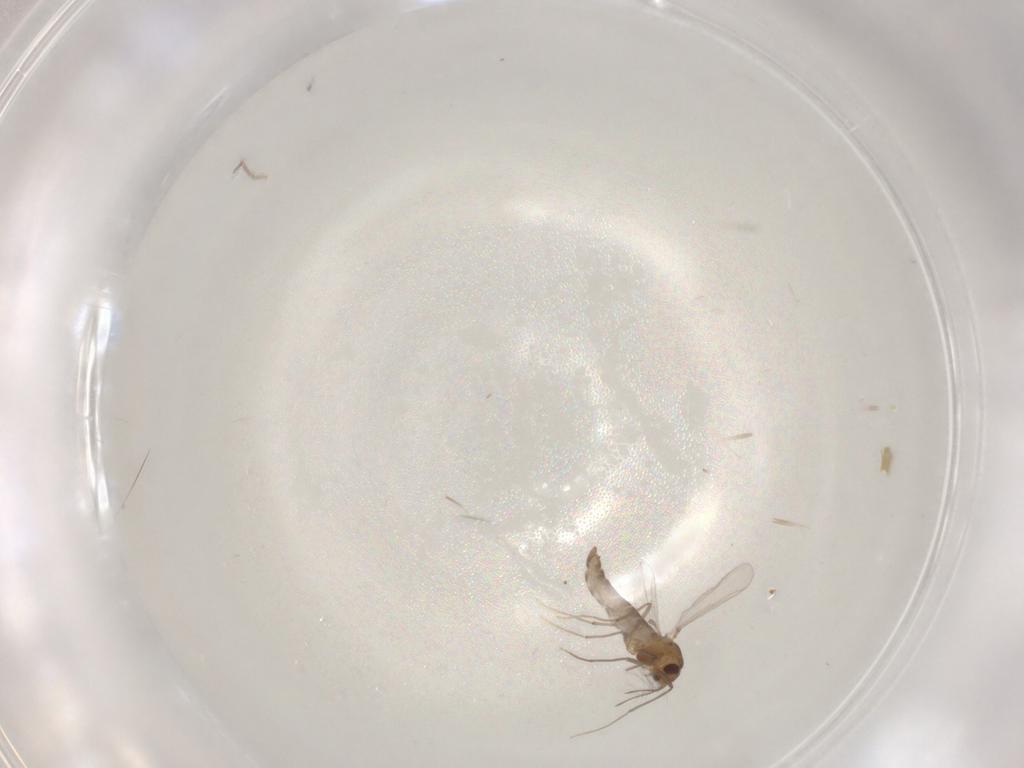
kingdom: Animalia
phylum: Arthropoda
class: Insecta
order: Diptera
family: Chironomidae
